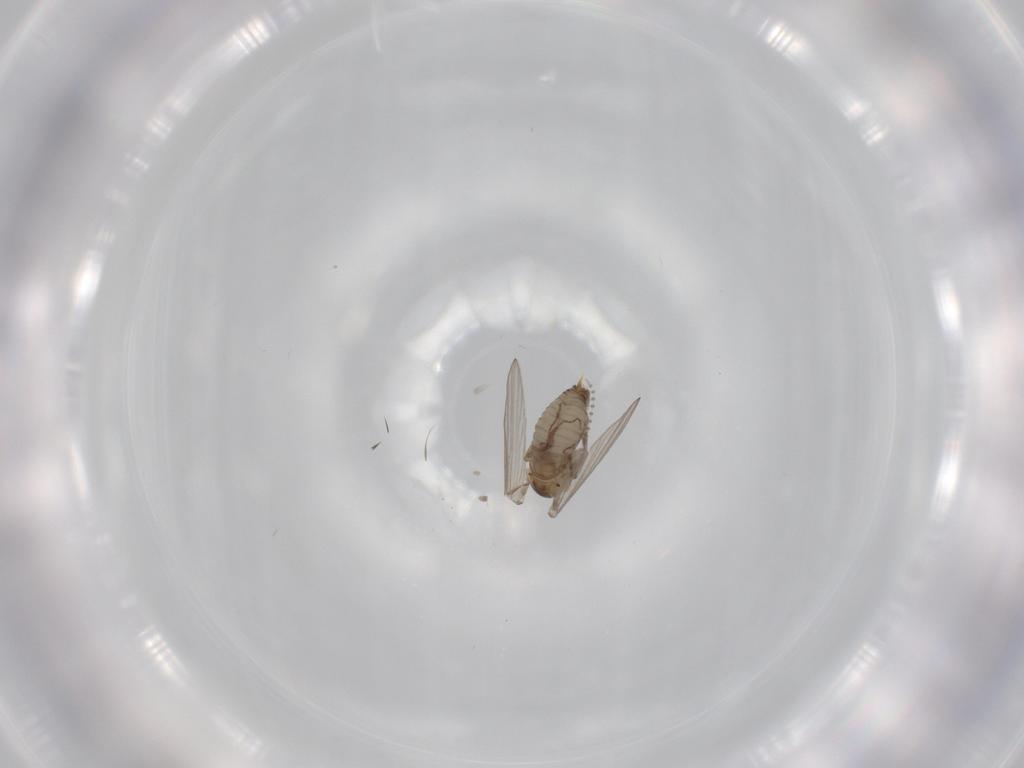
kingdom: Animalia
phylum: Arthropoda
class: Insecta
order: Diptera
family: Psychodidae
